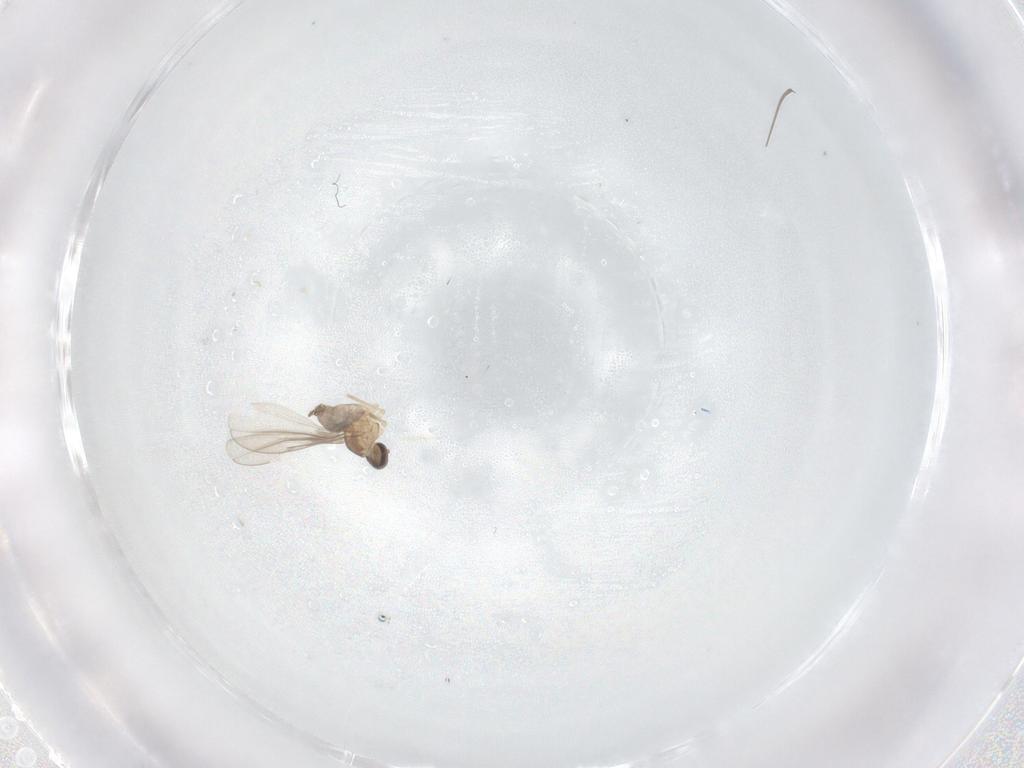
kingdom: Animalia
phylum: Arthropoda
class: Insecta
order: Diptera
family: Cecidomyiidae
